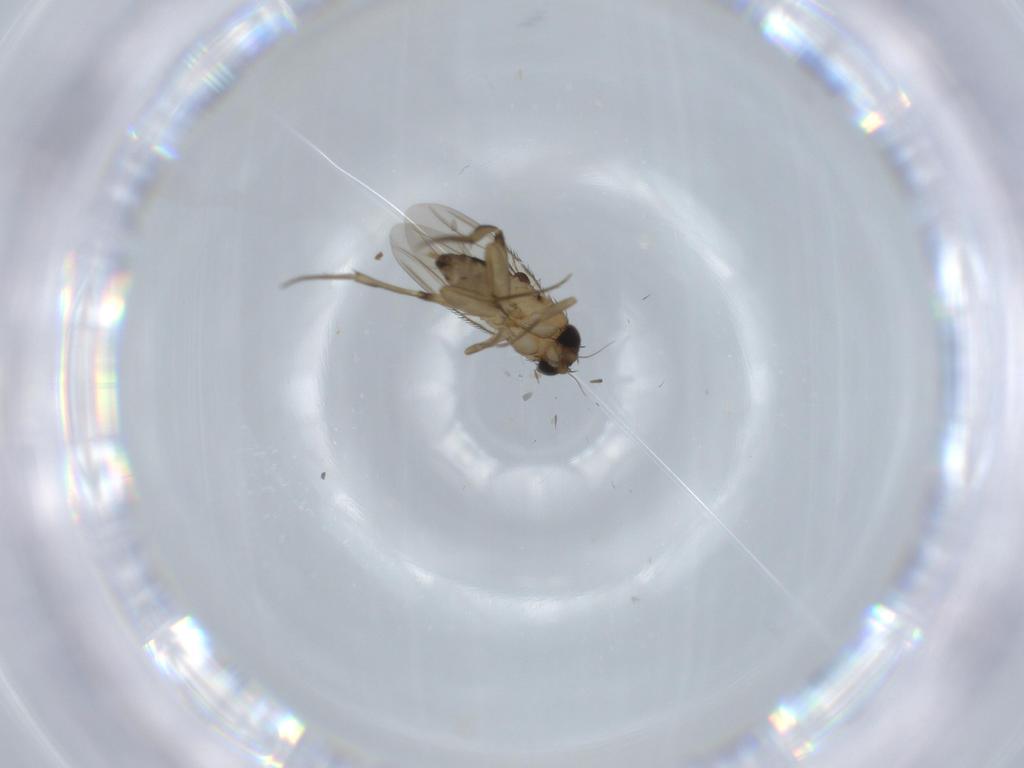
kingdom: Animalia
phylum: Arthropoda
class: Insecta
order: Diptera
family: Phoridae
